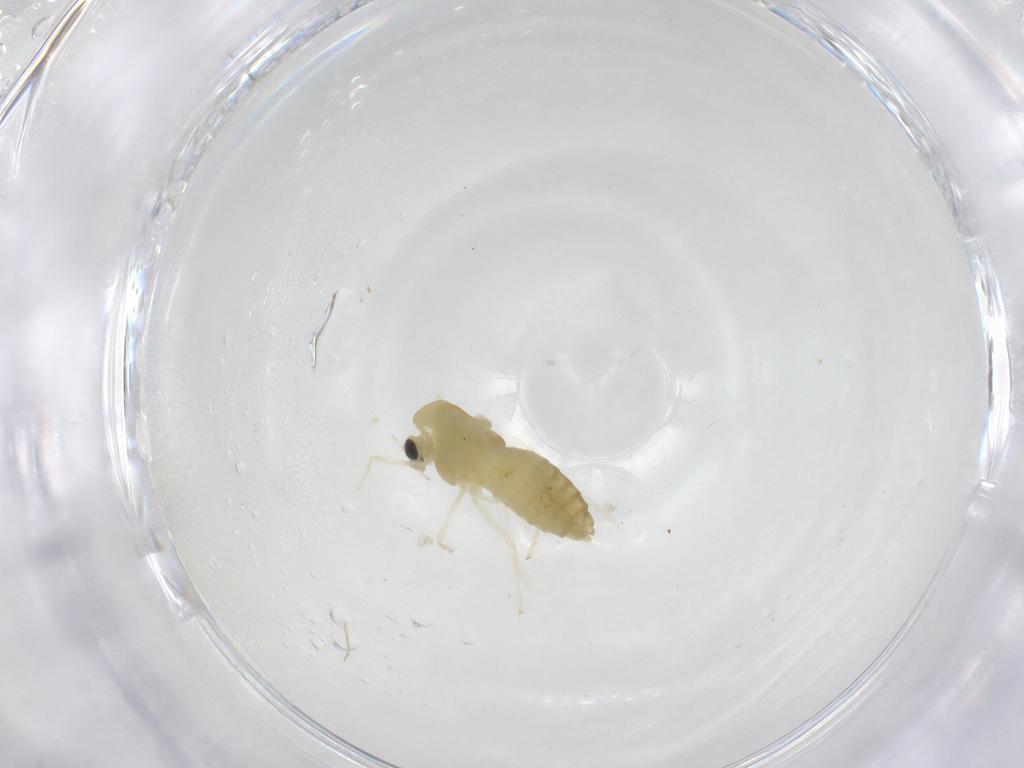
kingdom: Animalia
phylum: Arthropoda
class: Insecta
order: Diptera
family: Chironomidae
